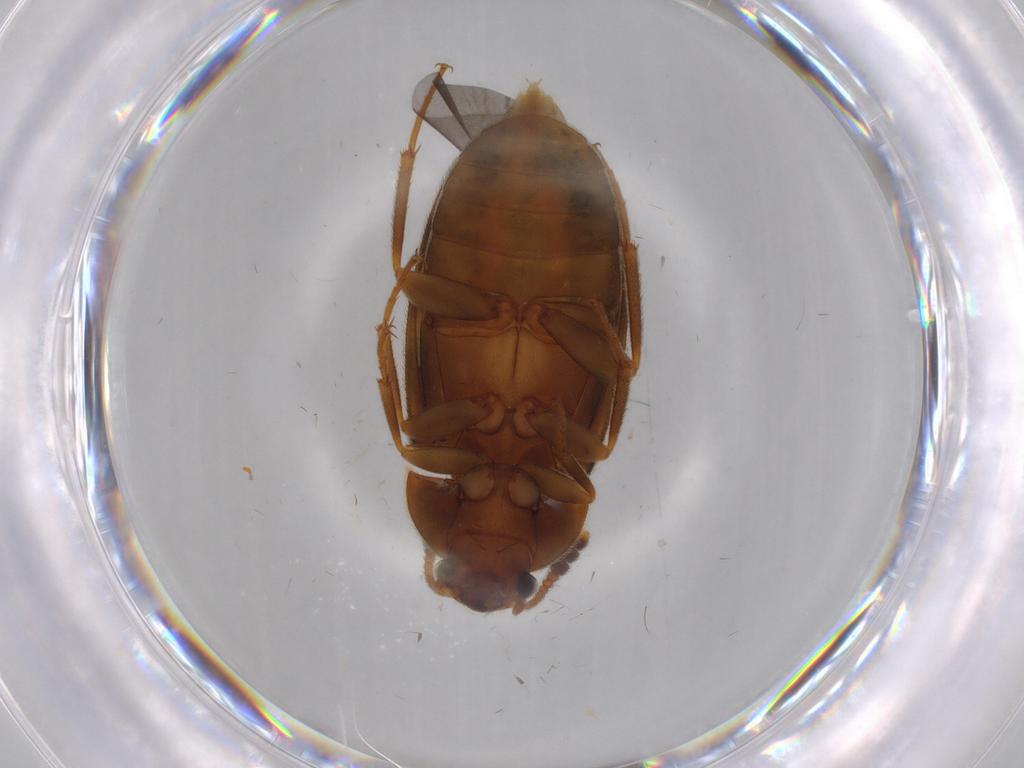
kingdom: Animalia
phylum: Arthropoda
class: Insecta
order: Coleoptera
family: Mycetophagidae
